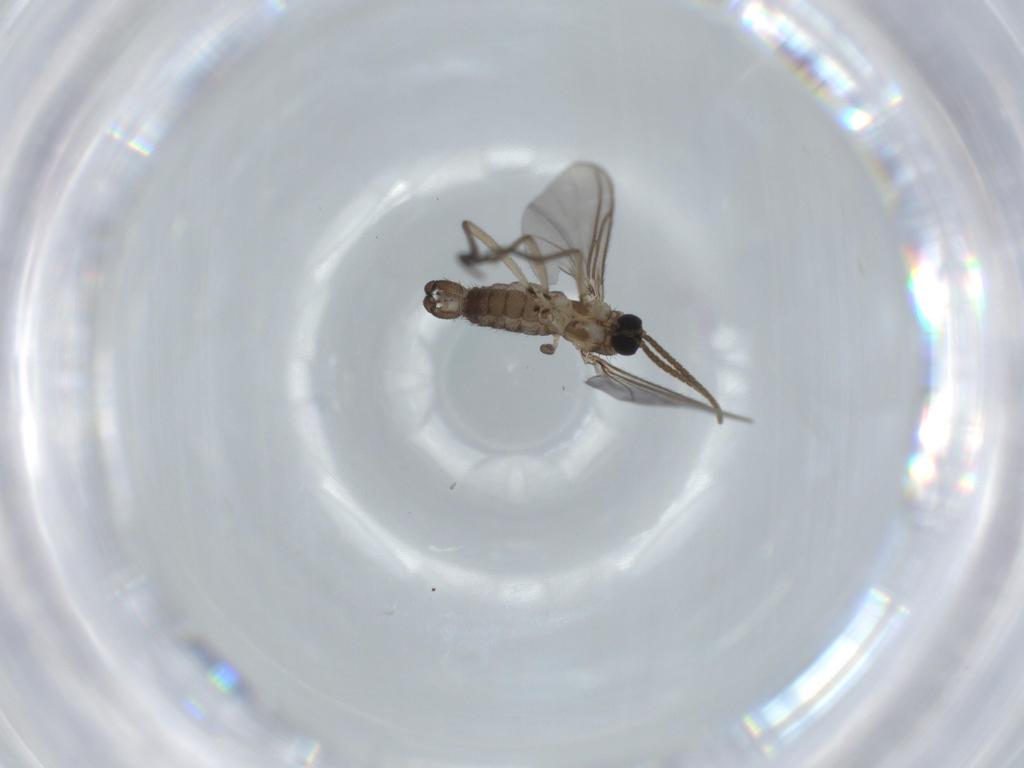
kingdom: Animalia
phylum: Arthropoda
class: Insecta
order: Diptera
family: Sciaridae
